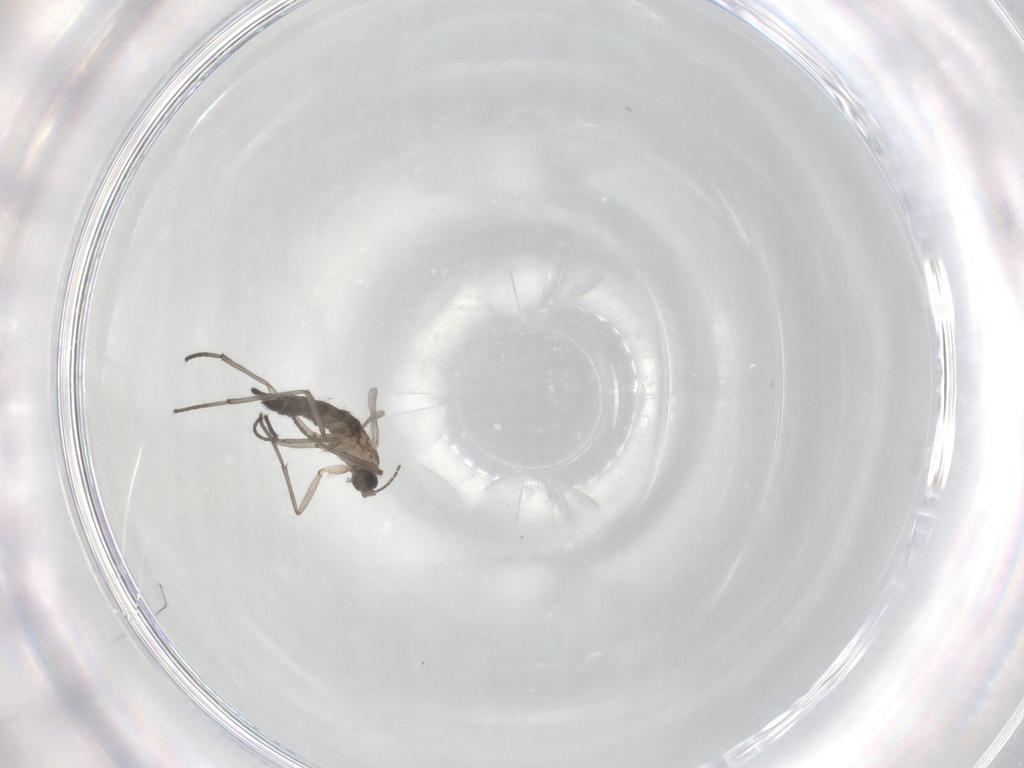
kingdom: Animalia
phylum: Arthropoda
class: Insecta
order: Diptera
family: Sciaridae
